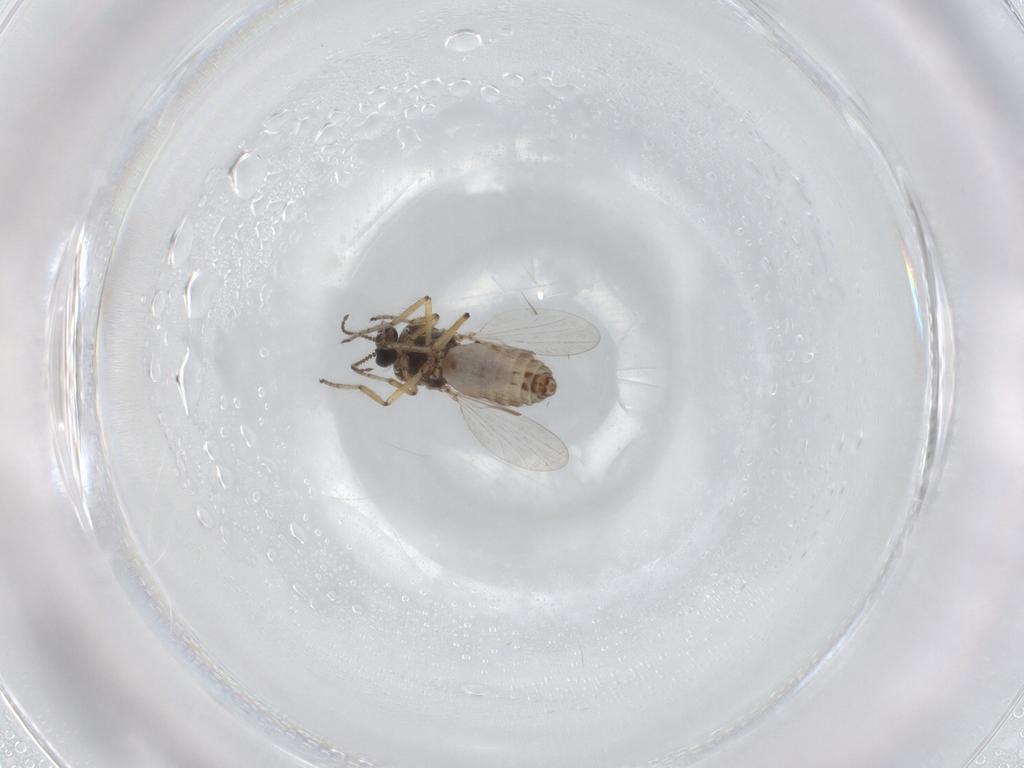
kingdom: Animalia
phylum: Arthropoda
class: Insecta
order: Diptera
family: Ceratopogonidae
